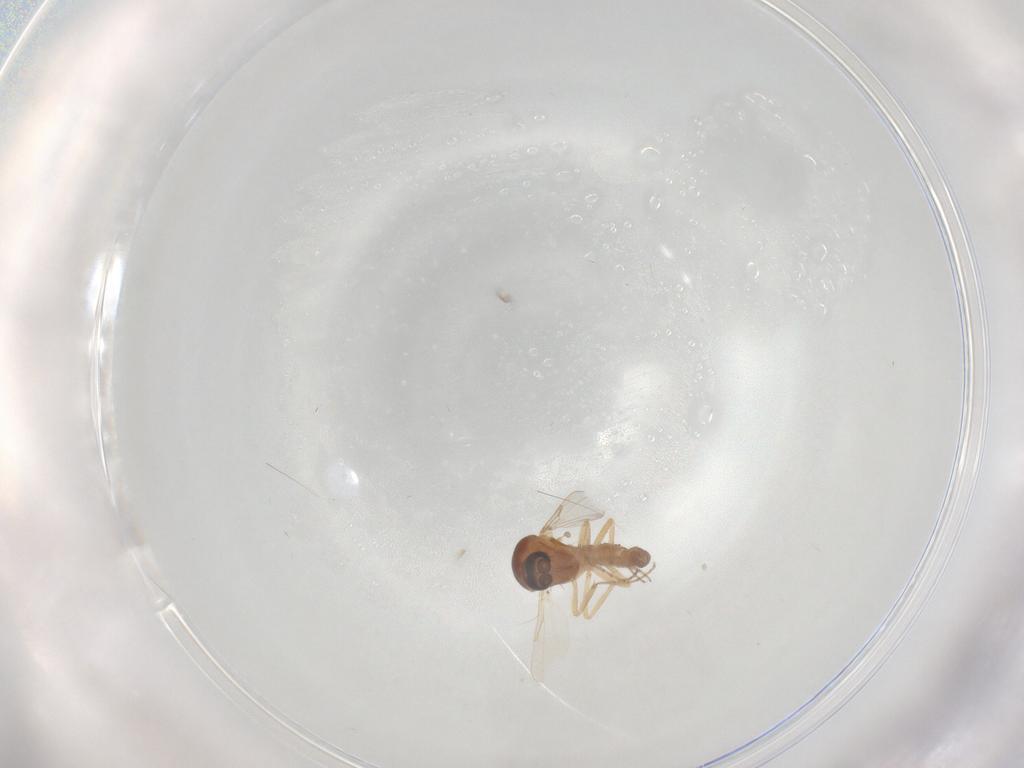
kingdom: Animalia
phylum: Arthropoda
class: Insecta
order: Diptera
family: Ceratopogonidae
